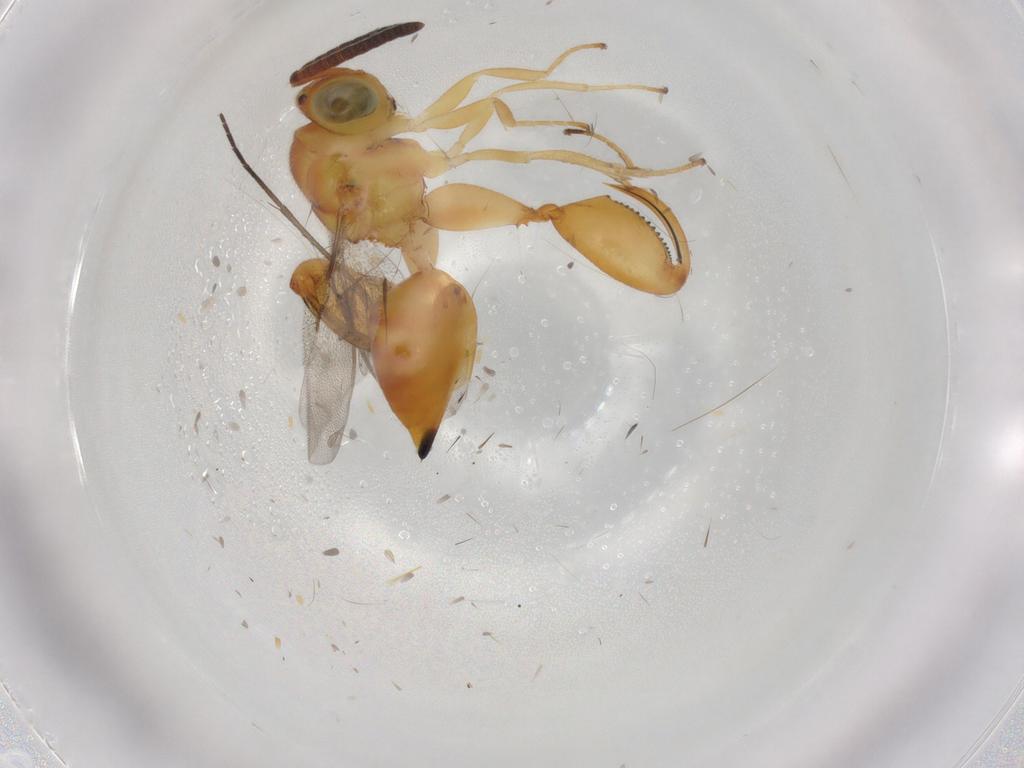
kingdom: Animalia
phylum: Arthropoda
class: Insecta
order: Hymenoptera
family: Chalcididae
